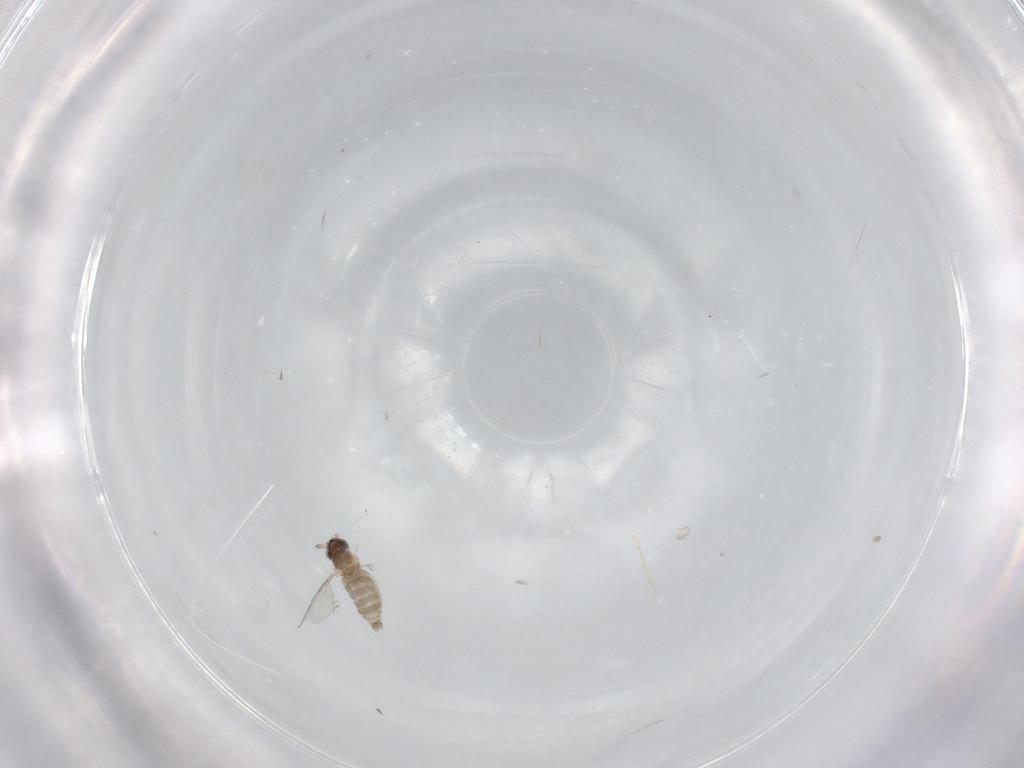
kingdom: Animalia
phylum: Arthropoda
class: Insecta
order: Diptera
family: Cecidomyiidae
